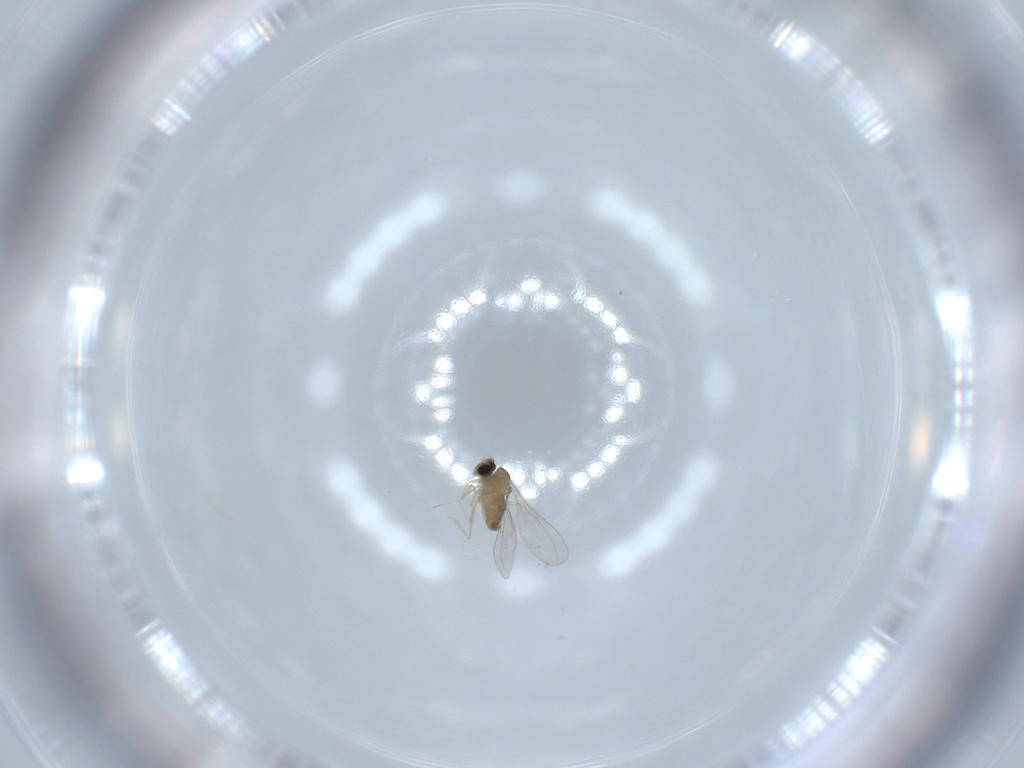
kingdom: Animalia
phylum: Arthropoda
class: Insecta
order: Diptera
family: Cecidomyiidae
